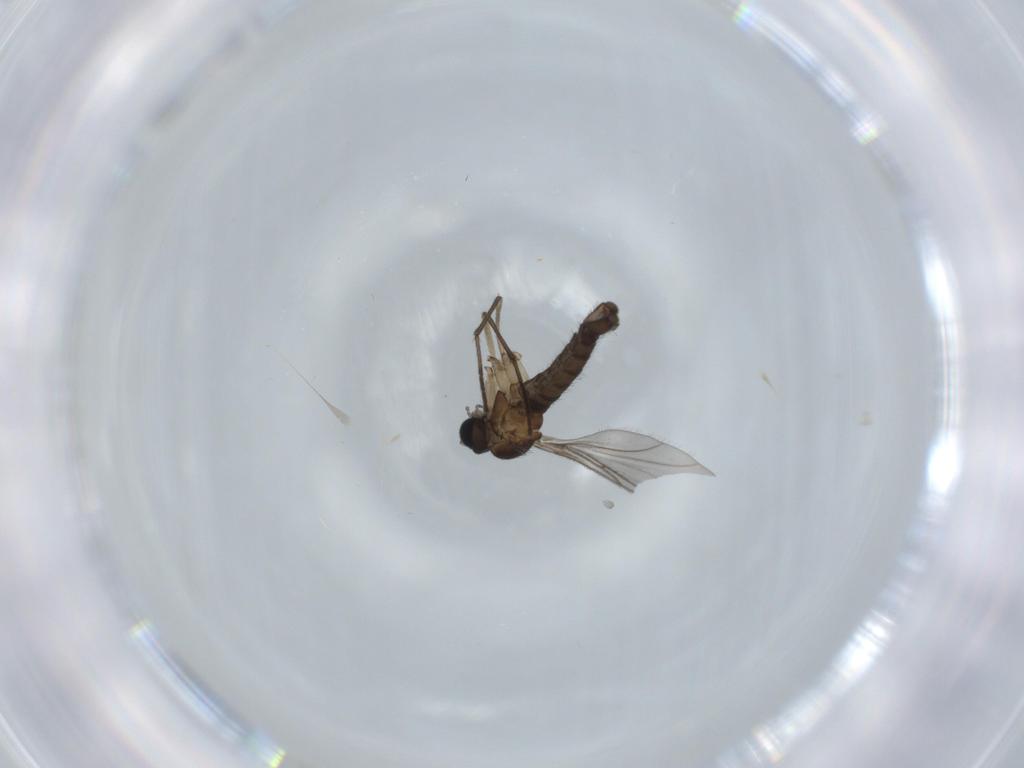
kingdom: Animalia
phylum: Arthropoda
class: Insecta
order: Diptera
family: Sciaridae
